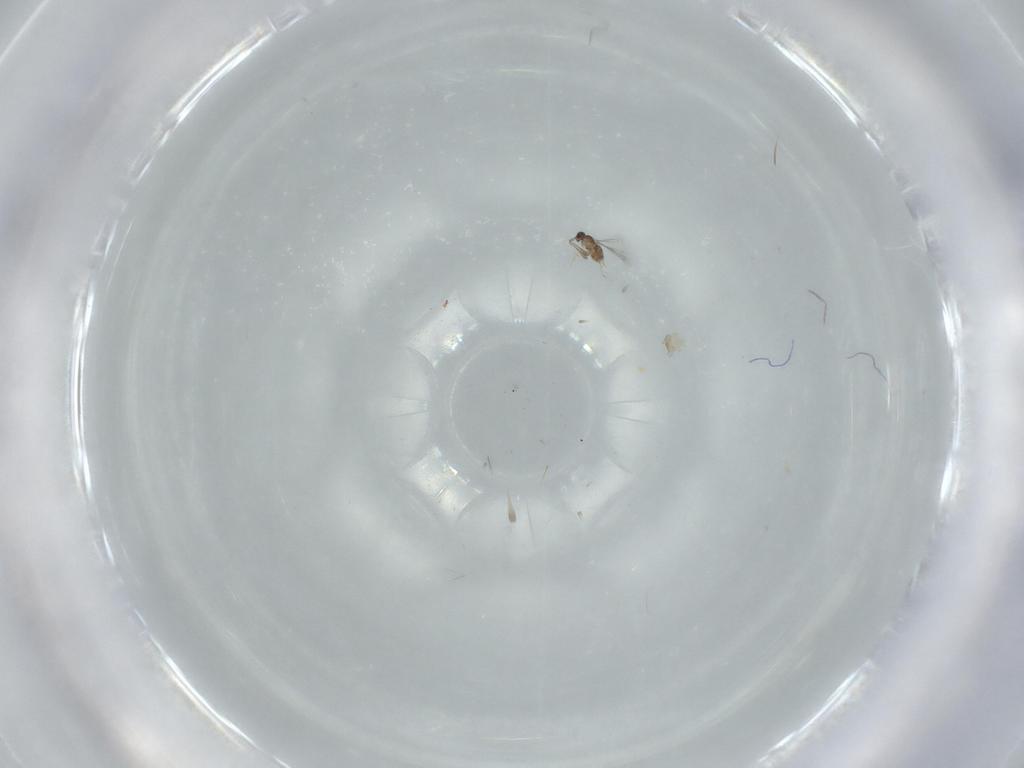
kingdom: Animalia
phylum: Arthropoda
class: Insecta
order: Hymenoptera
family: Mymaridae
